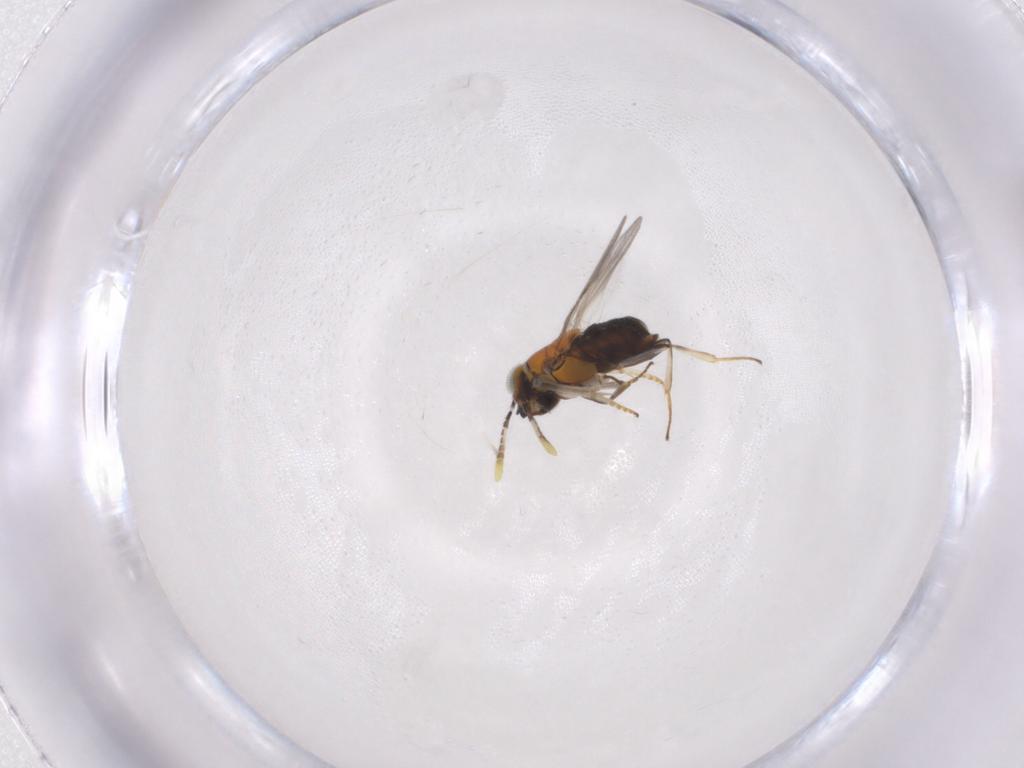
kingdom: Animalia
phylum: Arthropoda
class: Insecta
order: Hymenoptera
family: Encyrtidae
